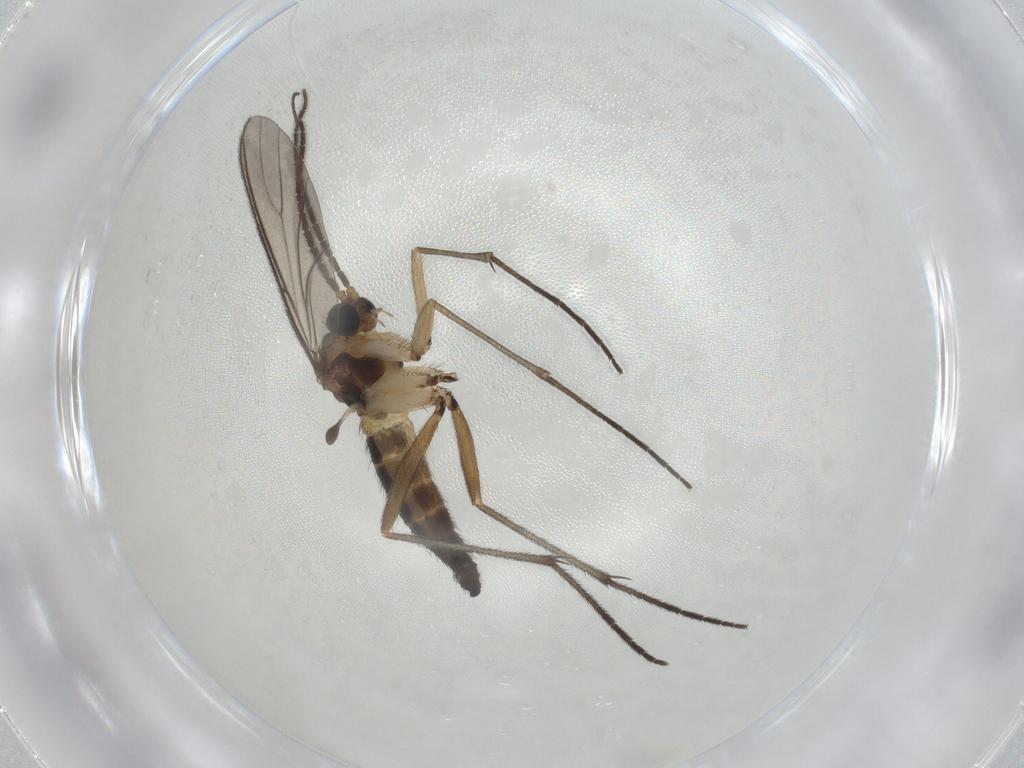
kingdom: Animalia
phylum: Arthropoda
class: Insecta
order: Diptera
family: Sciaridae
